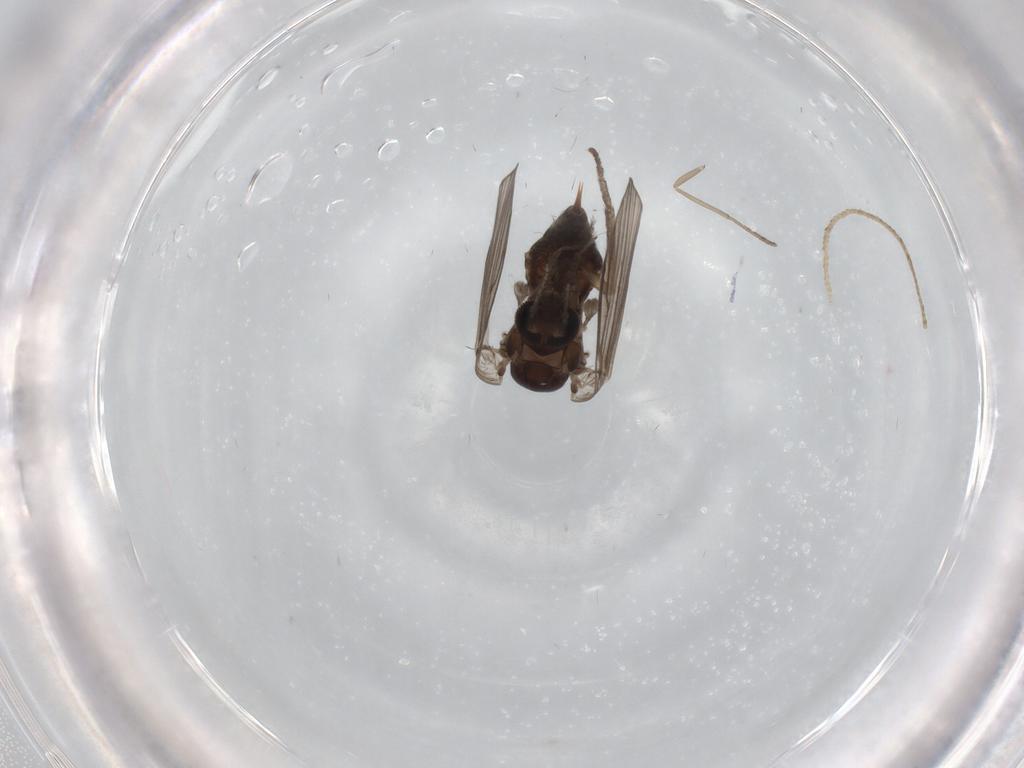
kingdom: Animalia
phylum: Arthropoda
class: Insecta
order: Diptera
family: Psychodidae
